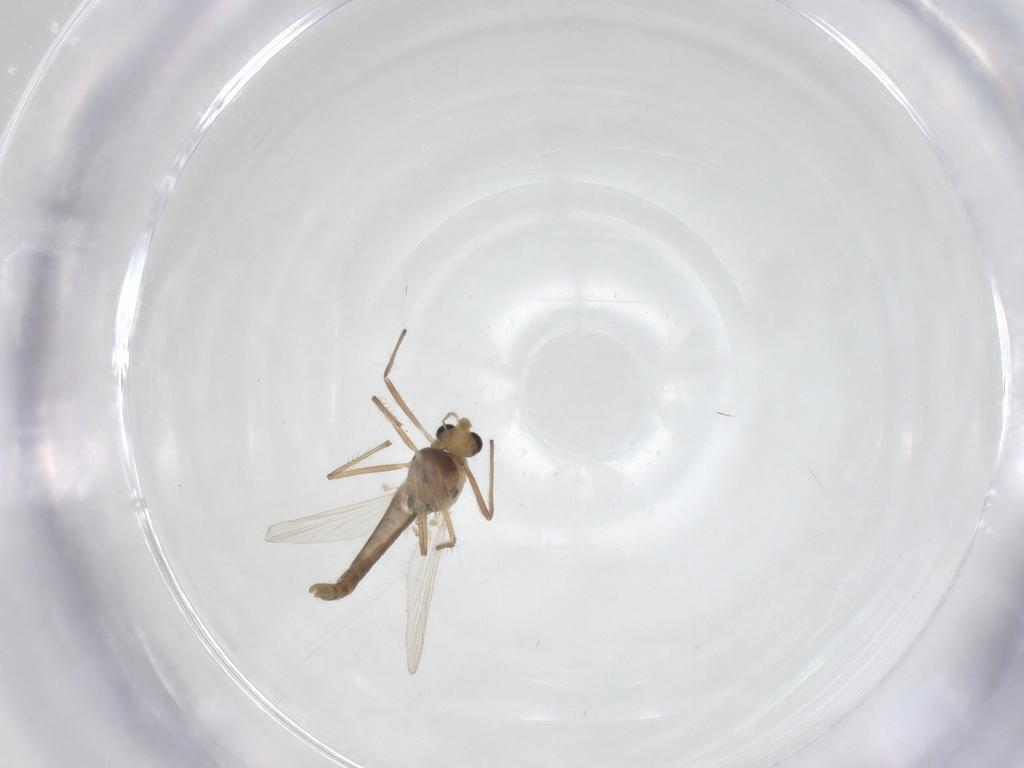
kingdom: Animalia
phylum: Arthropoda
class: Insecta
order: Diptera
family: Chironomidae
